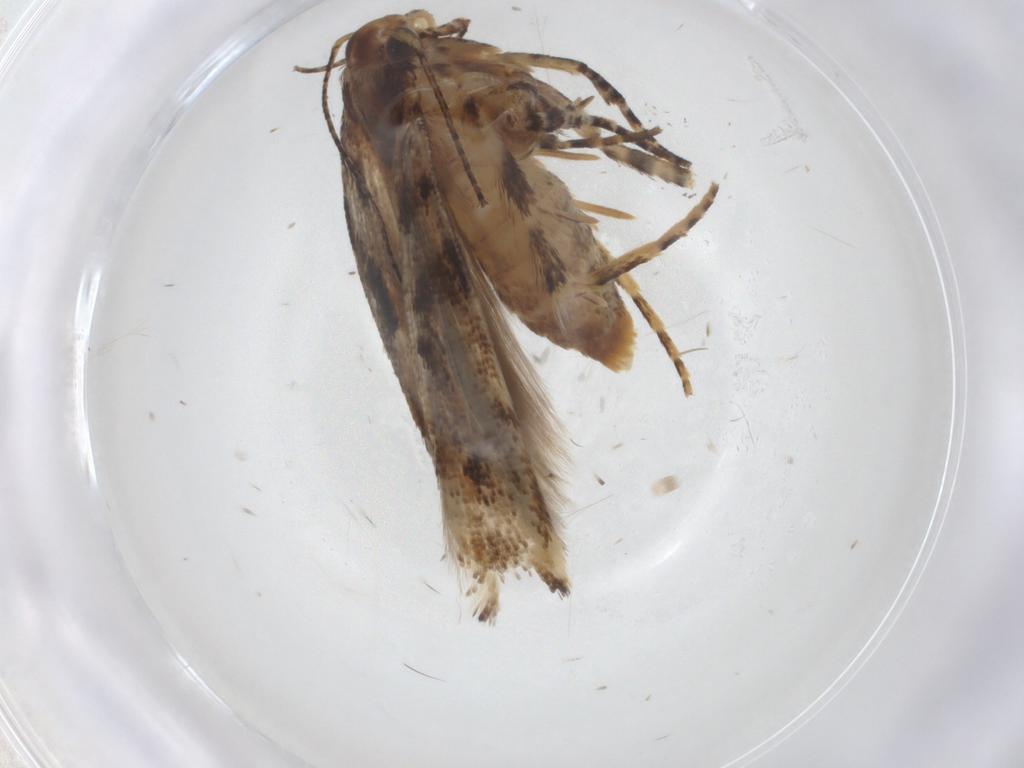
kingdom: Animalia
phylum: Arthropoda
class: Insecta
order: Lepidoptera
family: Gelechiidae
